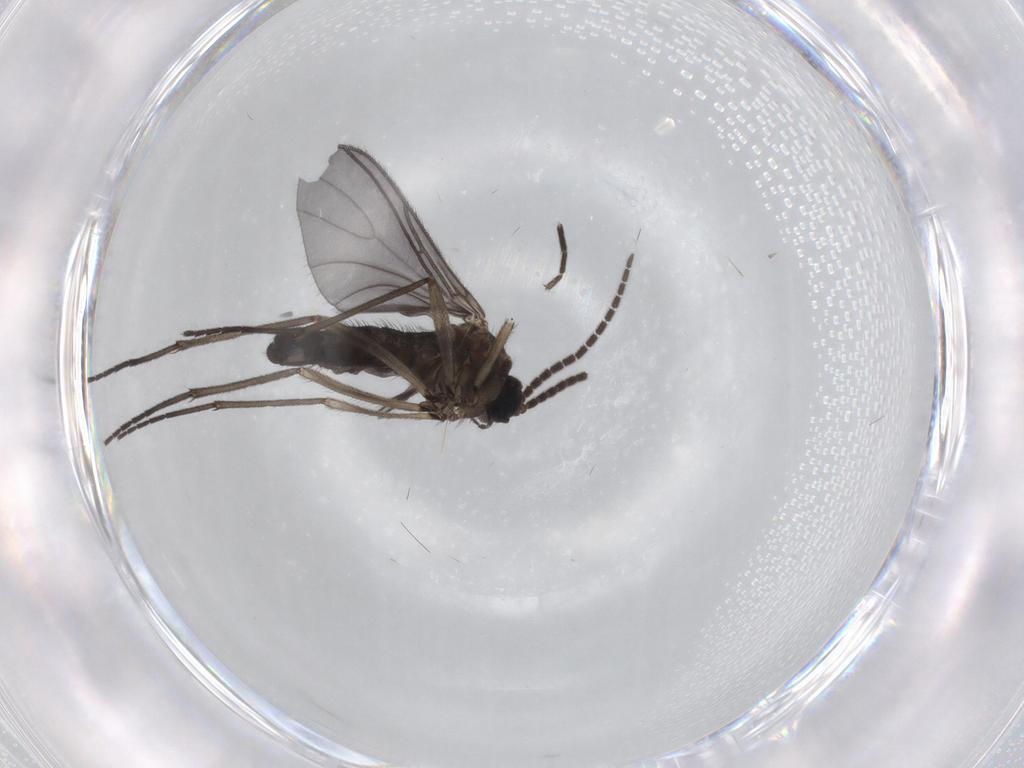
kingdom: Animalia
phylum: Arthropoda
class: Insecta
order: Diptera
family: Sciaridae
